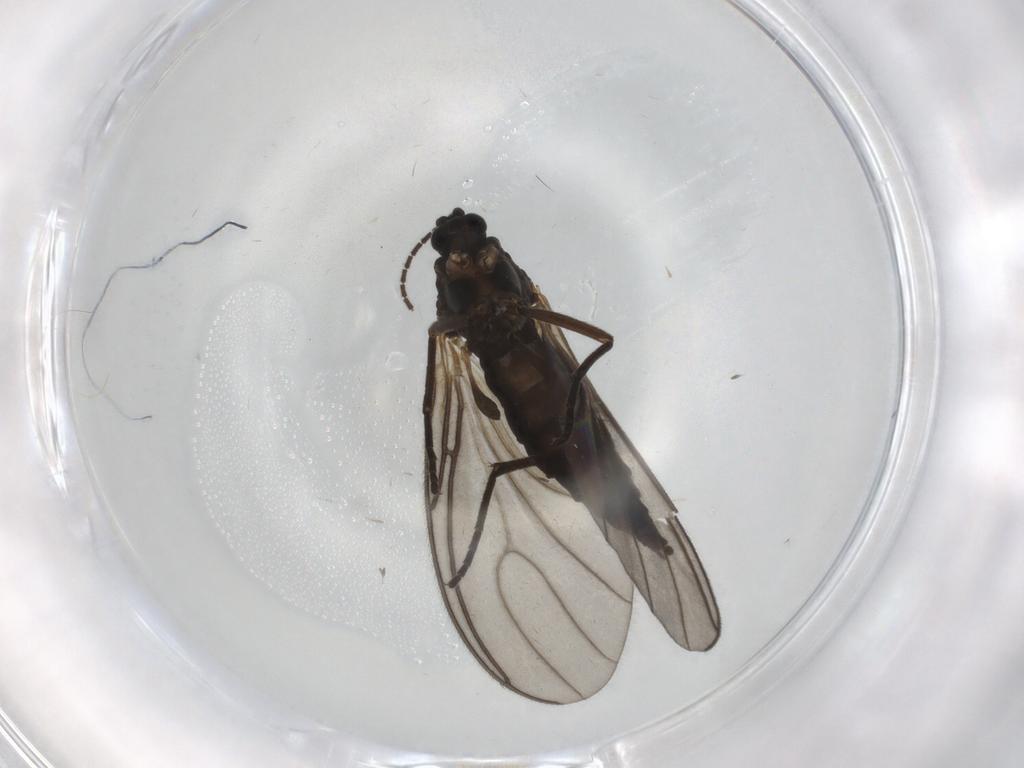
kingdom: Animalia
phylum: Arthropoda
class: Insecta
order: Diptera
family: Sciaridae
